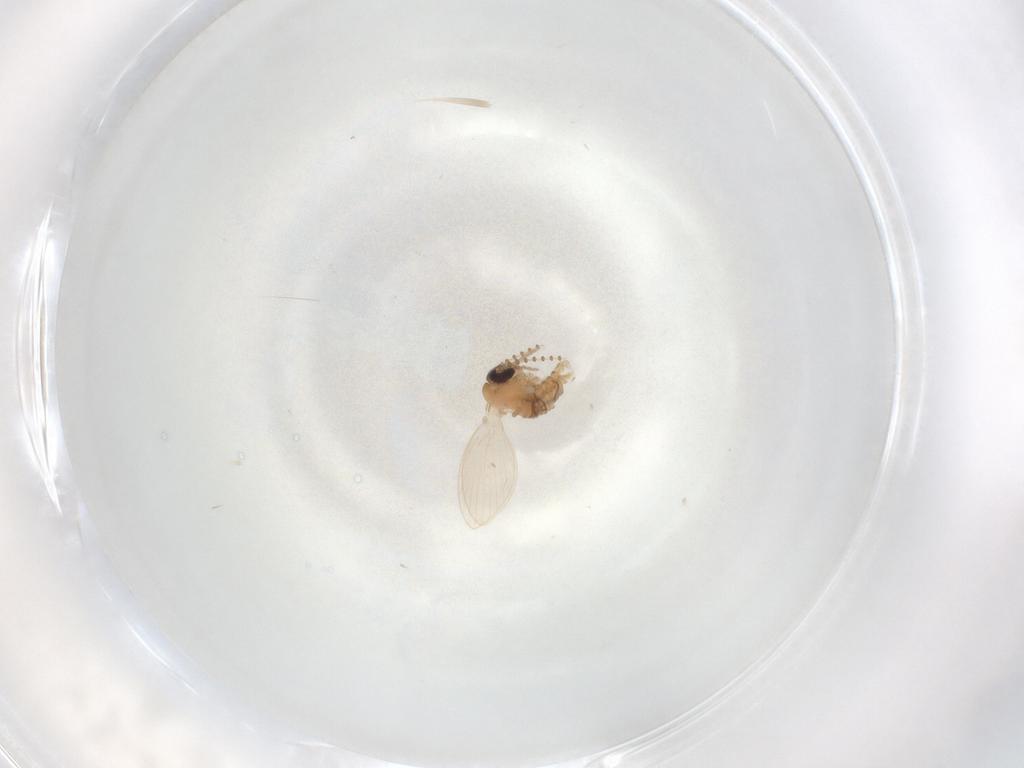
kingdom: Animalia
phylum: Arthropoda
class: Insecta
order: Diptera
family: Psychodidae
